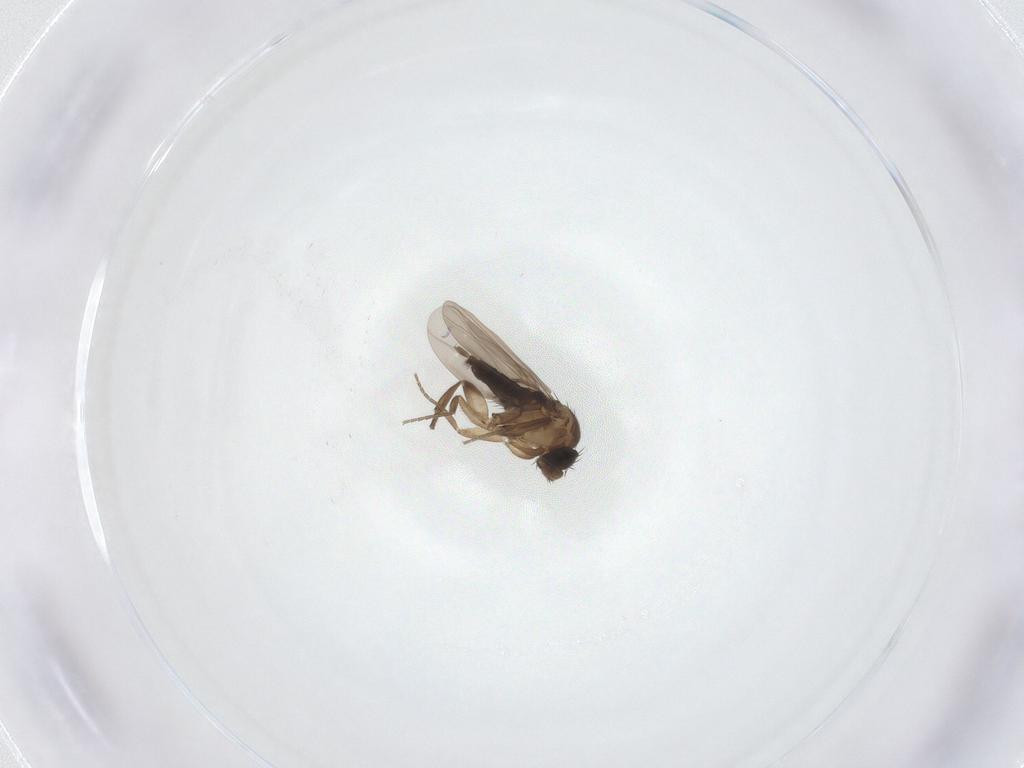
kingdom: Animalia
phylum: Arthropoda
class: Insecta
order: Diptera
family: Phoridae
